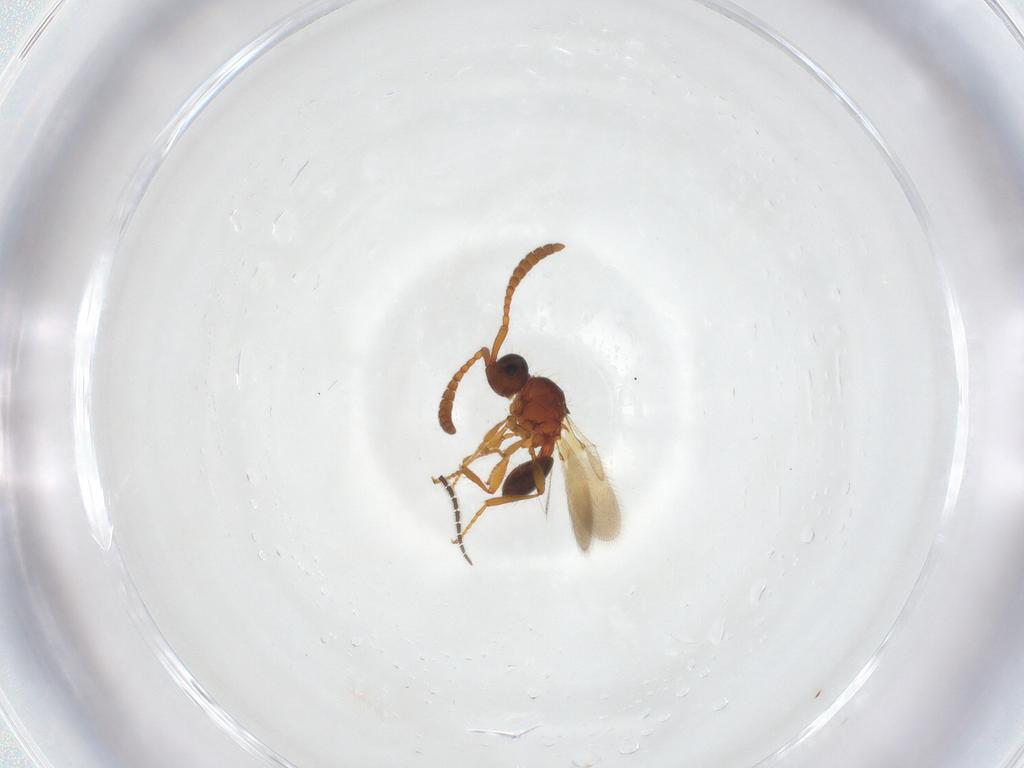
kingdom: Animalia
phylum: Arthropoda
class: Insecta
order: Hymenoptera
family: Diapriidae
